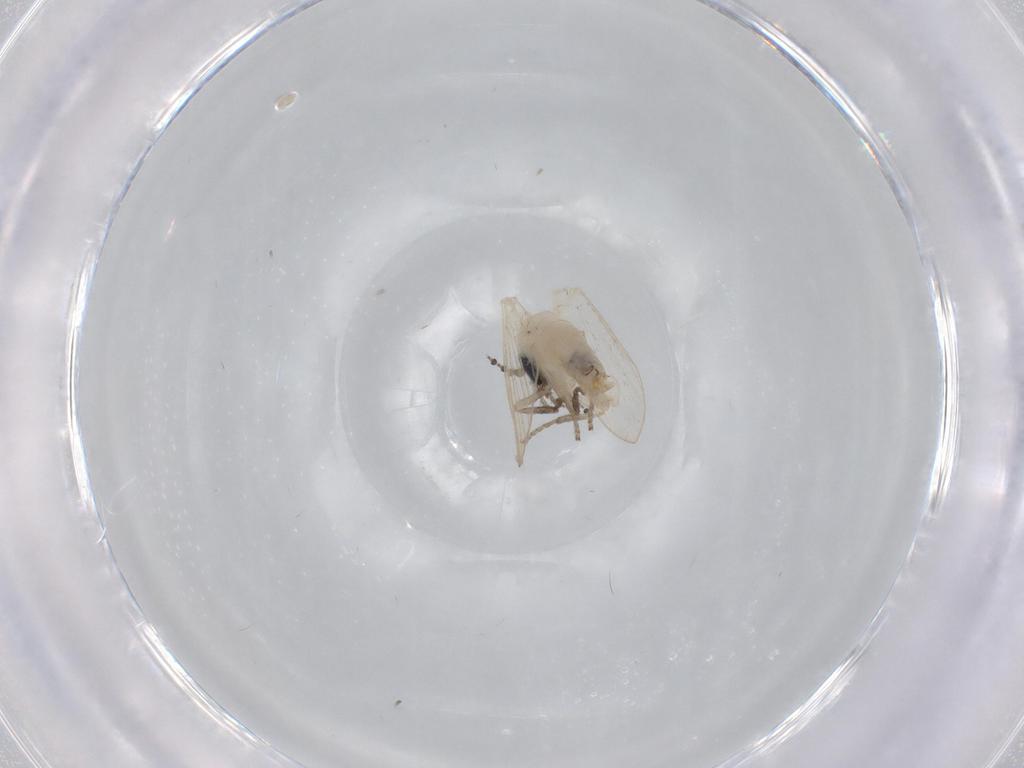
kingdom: Animalia
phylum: Arthropoda
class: Insecta
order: Diptera
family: Psychodidae
